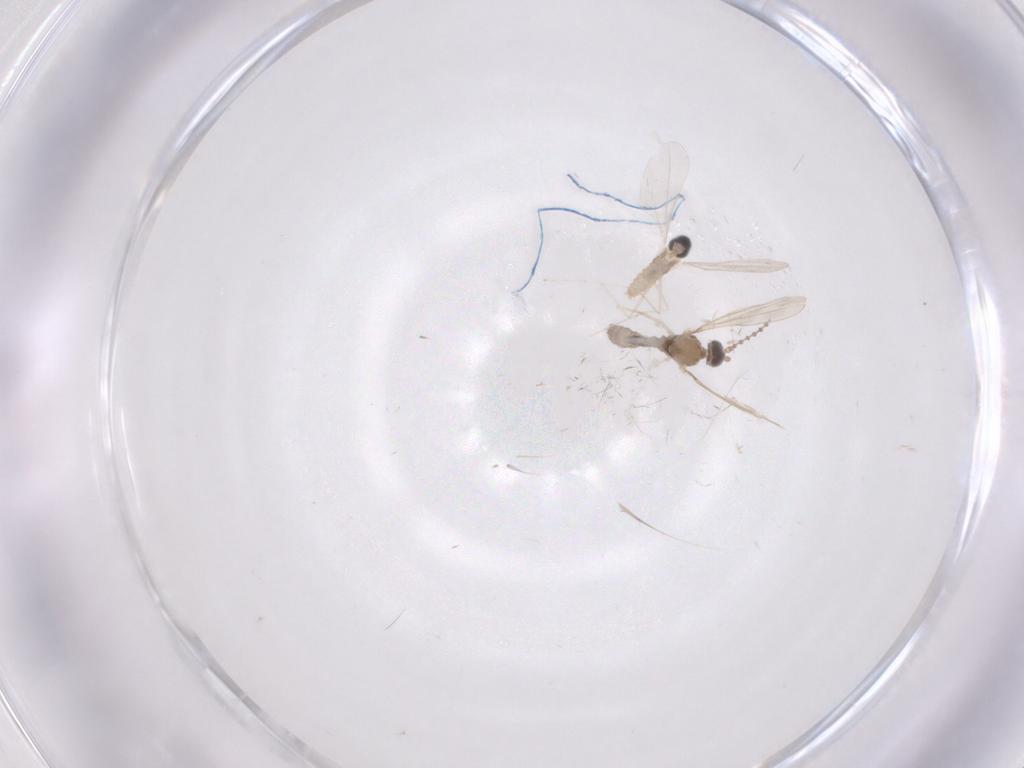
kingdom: Animalia
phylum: Arthropoda
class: Insecta
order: Diptera
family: Cecidomyiidae
